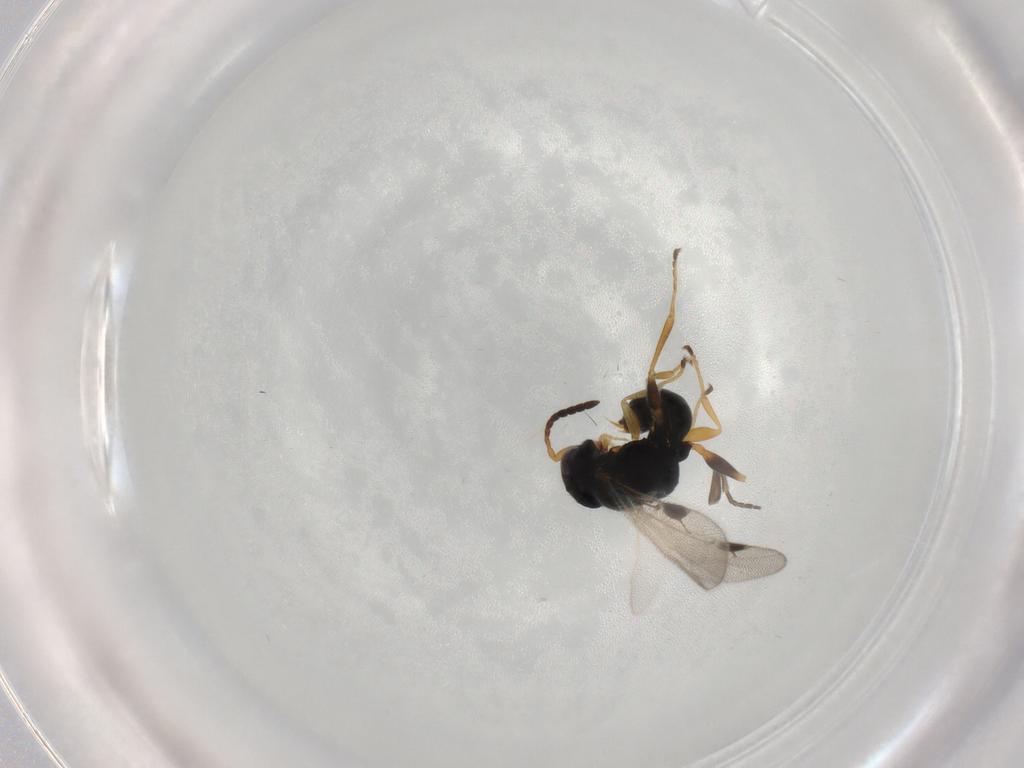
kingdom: Animalia
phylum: Arthropoda
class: Insecta
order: Hymenoptera
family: Dryinidae
